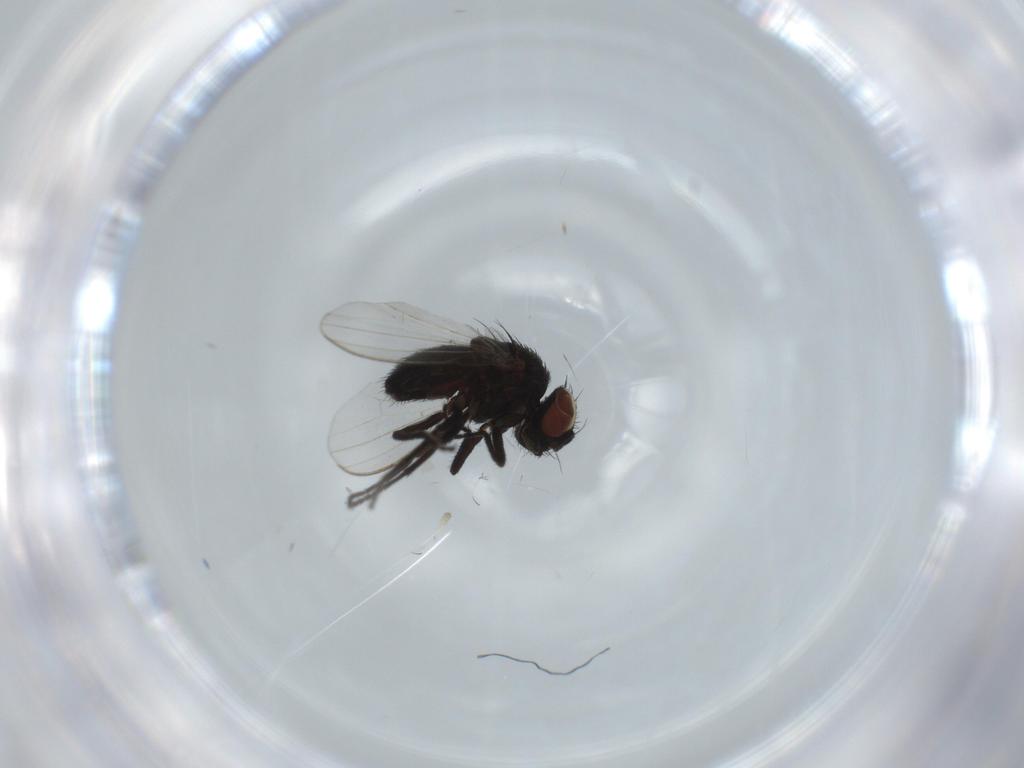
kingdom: Animalia
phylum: Arthropoda
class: Insecta
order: Diptera
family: Milichiidae
